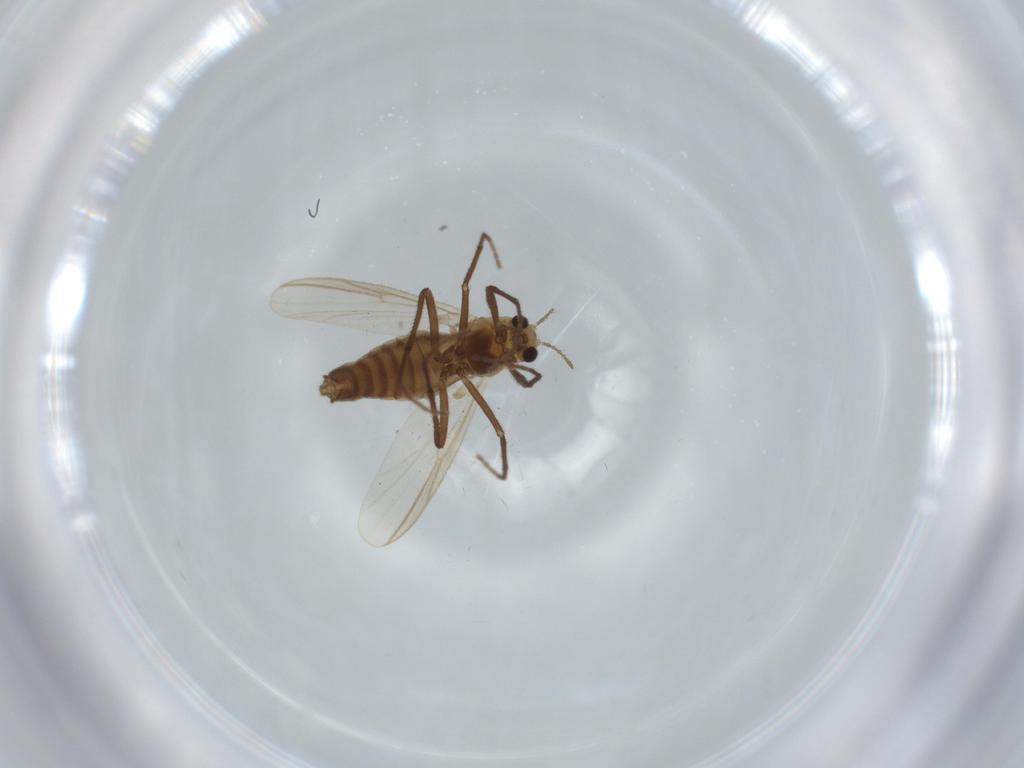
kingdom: Animalia
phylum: Arthropoda
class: Insecta
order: Diptera
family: Chironomidae
